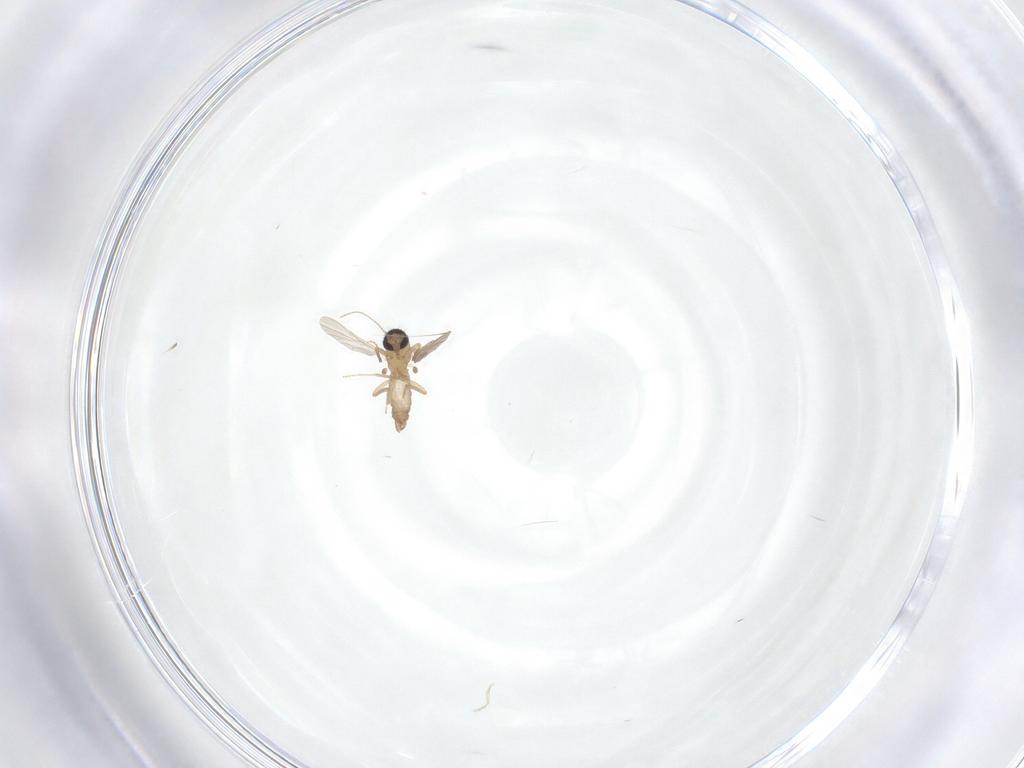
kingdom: Animalia
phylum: Arthropoda
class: Insecta
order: Diptera
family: Ceratopogonidae
